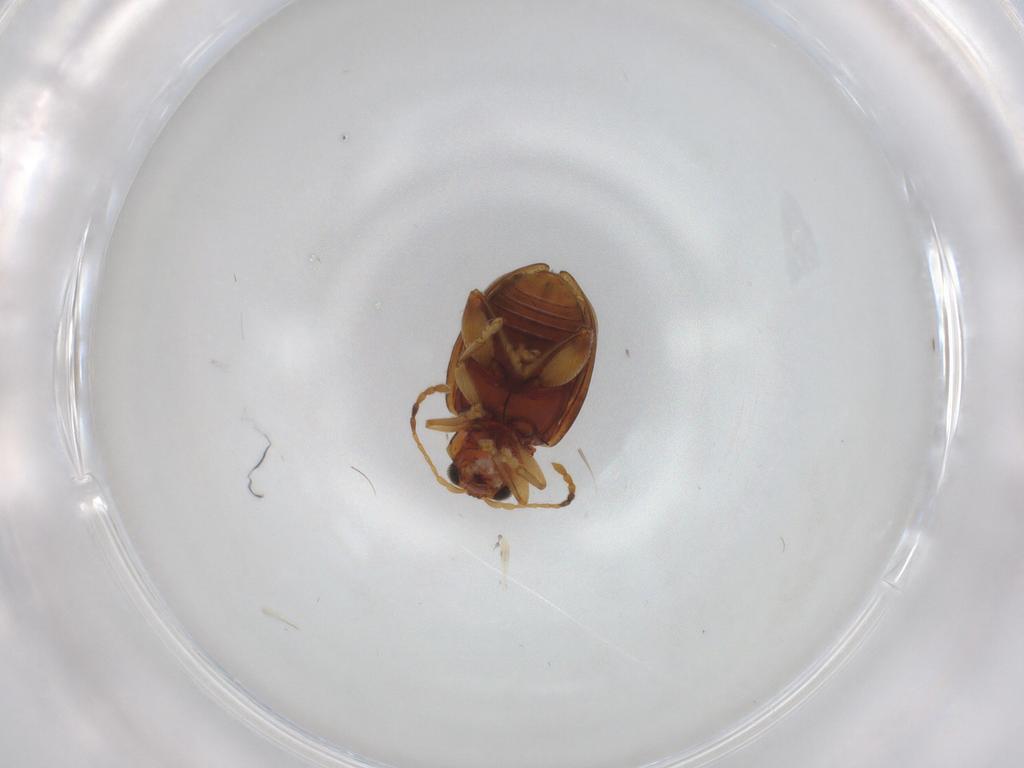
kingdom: Animalia
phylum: Arthropoda
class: Insecta
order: Coleoptera
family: Chrysomelidae
